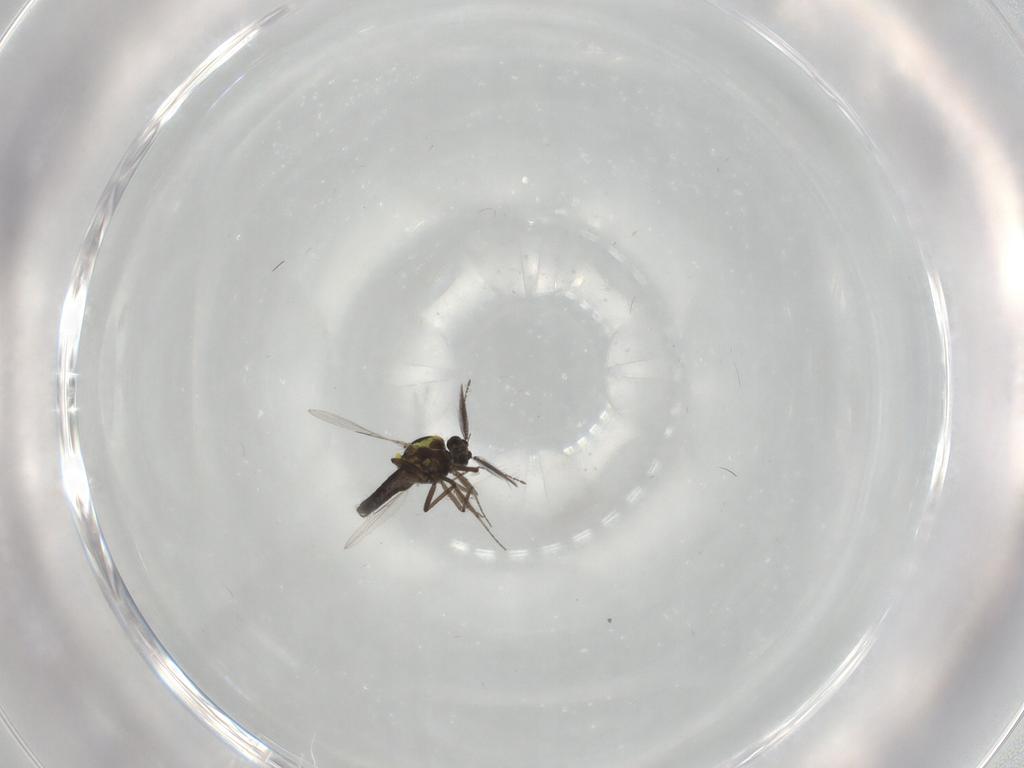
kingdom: Animalia
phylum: Arthropoda
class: Insecta
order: Diptera
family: Ceratopogonidae
